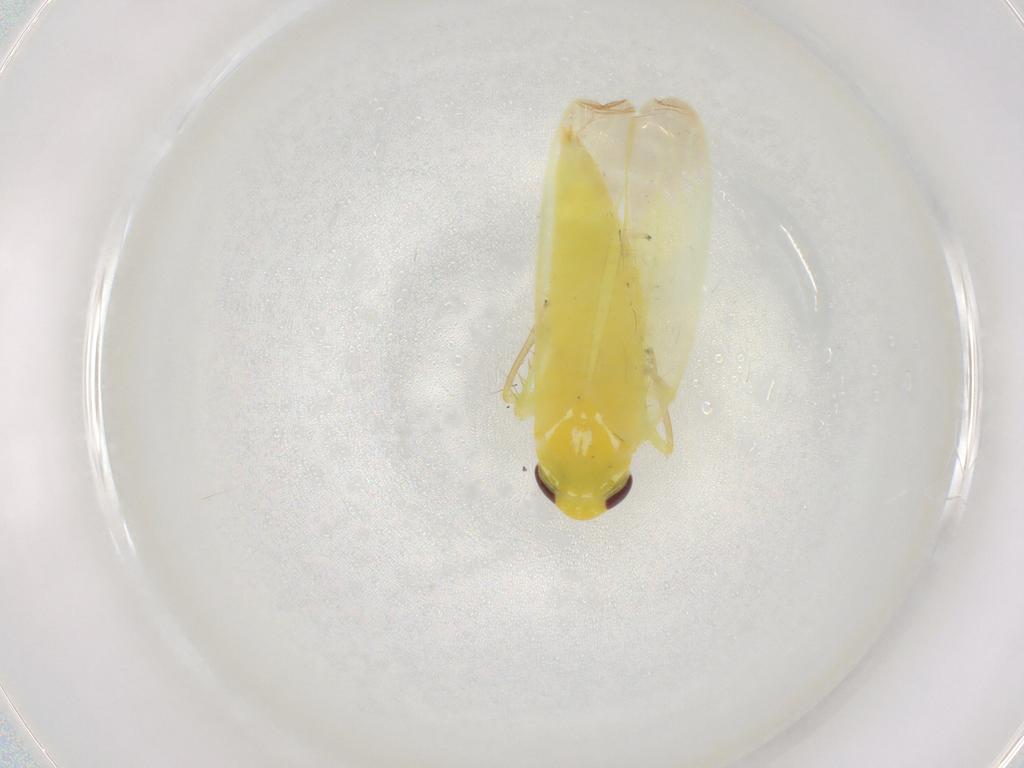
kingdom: Animalia
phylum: Arthropoda
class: Insecta
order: Hemiptera
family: Cicadellidae
